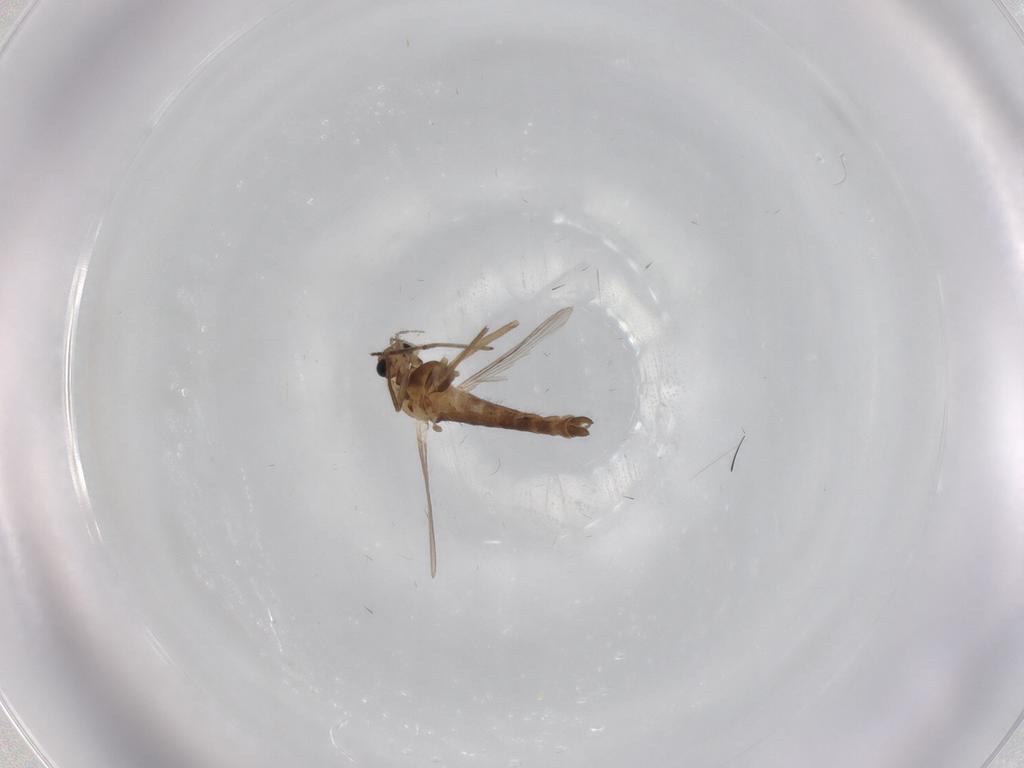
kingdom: Animalia
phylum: Arthropoda
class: Insecta
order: Diptera
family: Chironomidae
